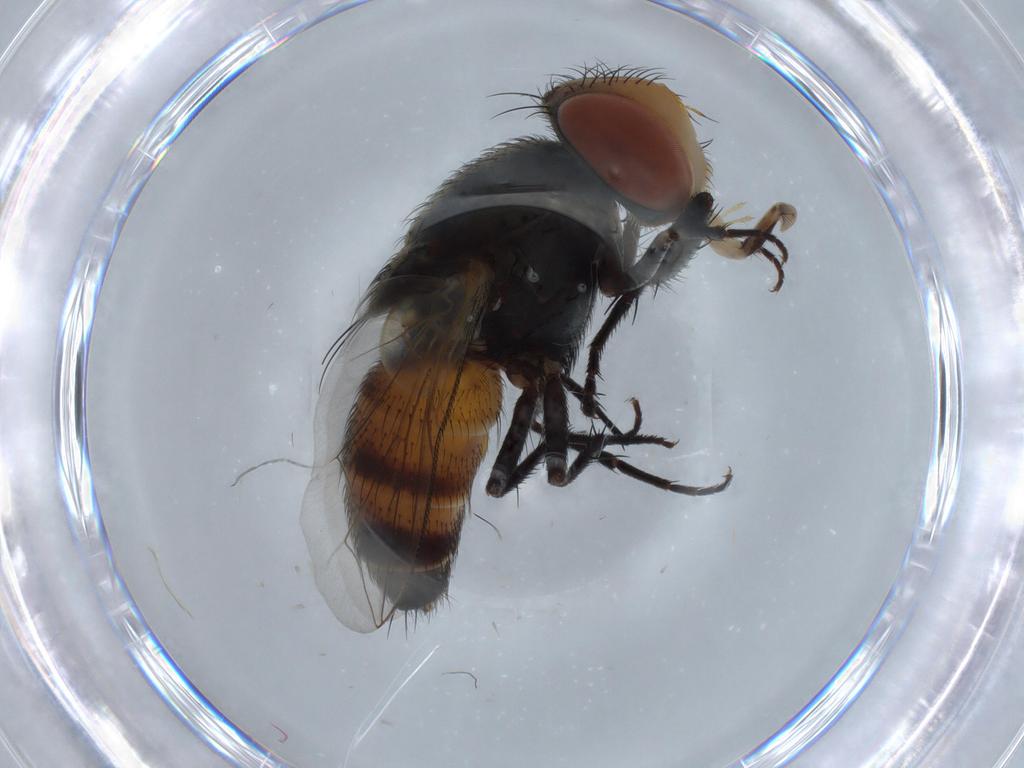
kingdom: Animalia
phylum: Arthropoda
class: Insecta
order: Diptera
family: Sarcophagidae
